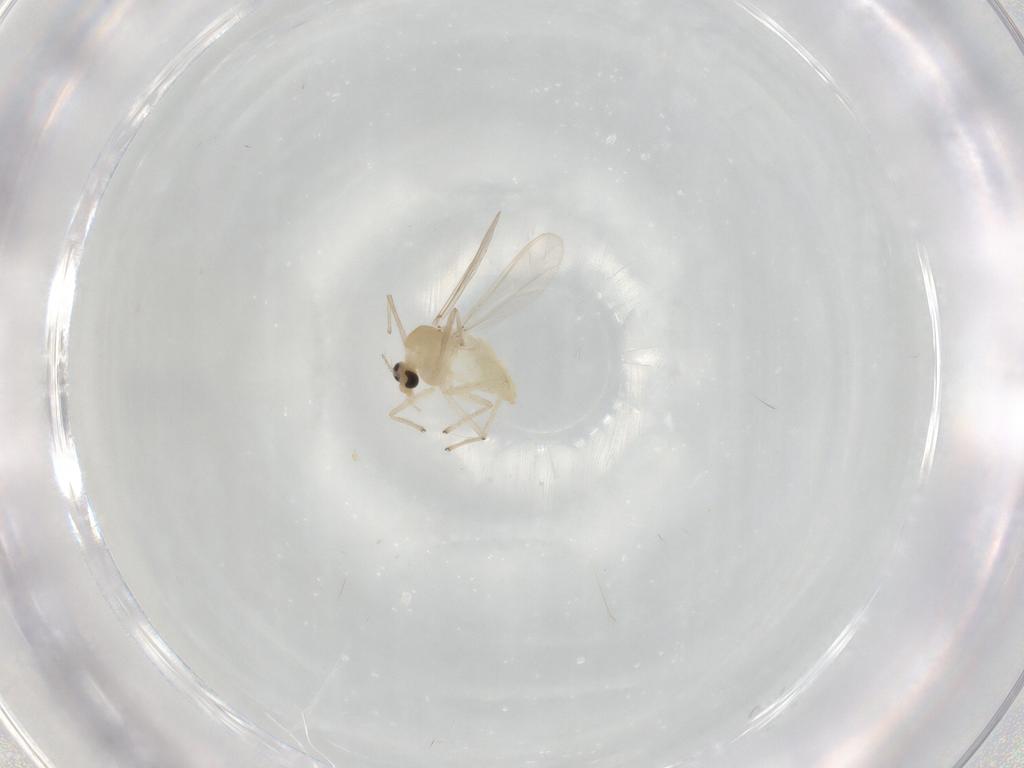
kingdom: Animalia
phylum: Arthropoda
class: Insecta
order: Diptera
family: Chironomidae
